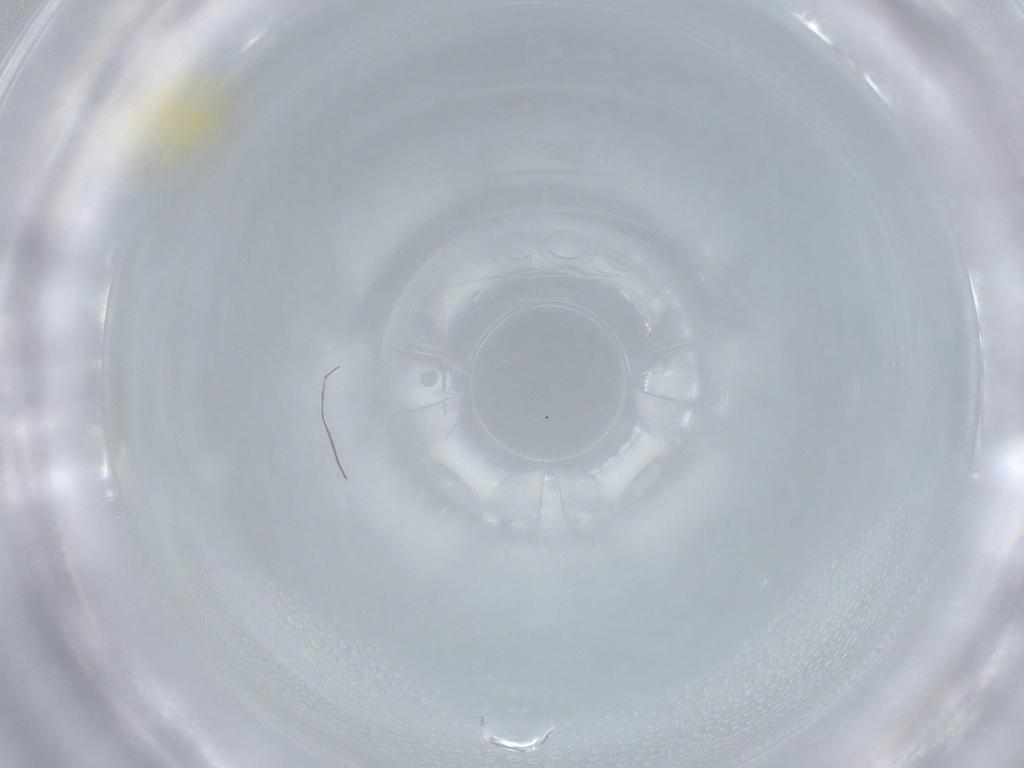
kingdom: Animalia
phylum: Arthropoda
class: Insecta
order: Hemiptera
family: Aleyrodidae
